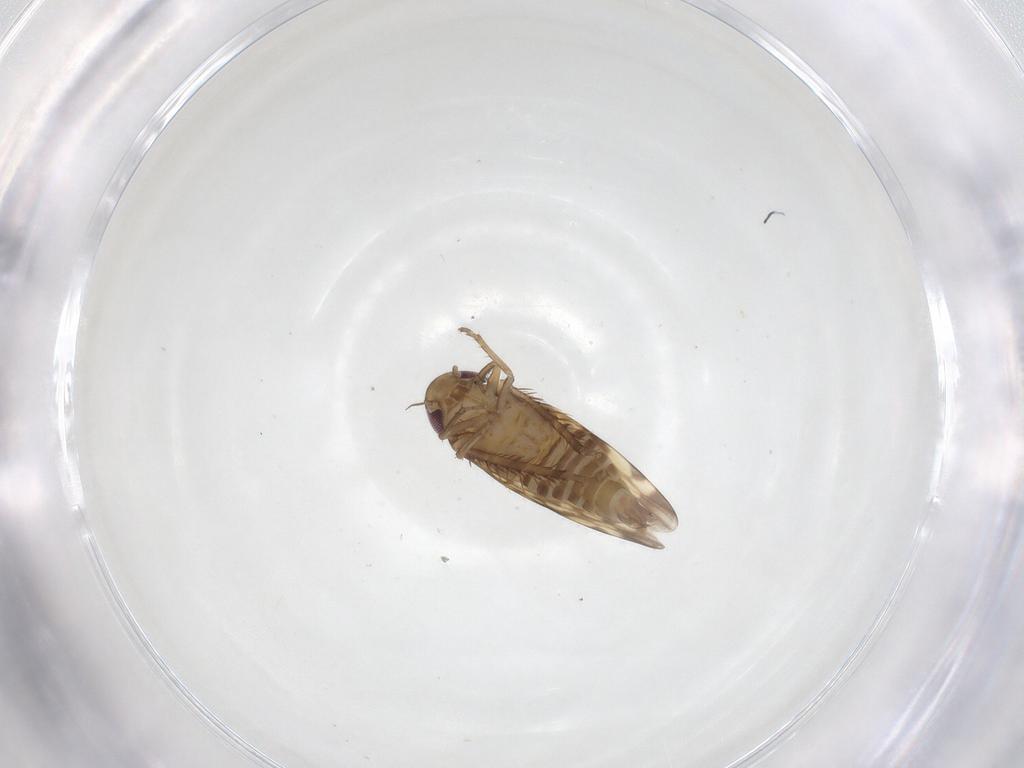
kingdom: Animalia
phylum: Arthropoda
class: Insecta
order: Hemiptera
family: Cicadellidae
